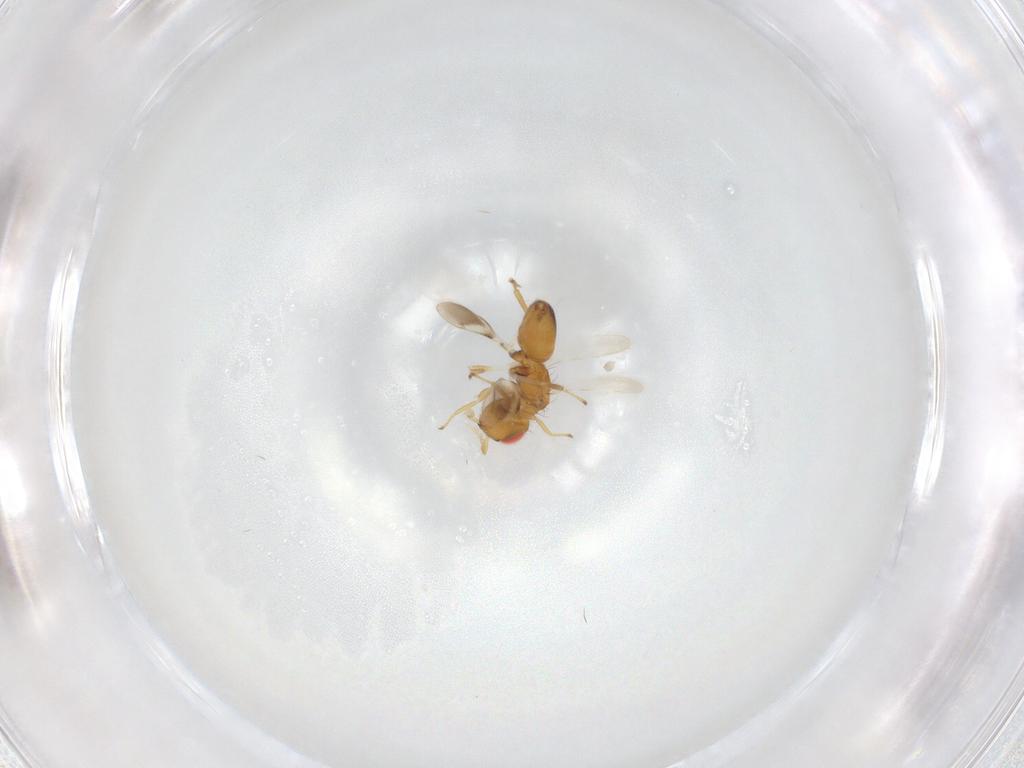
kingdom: Animalia
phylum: Arthropoda
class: Insecta
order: Hymenoptera
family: Eulophidae
